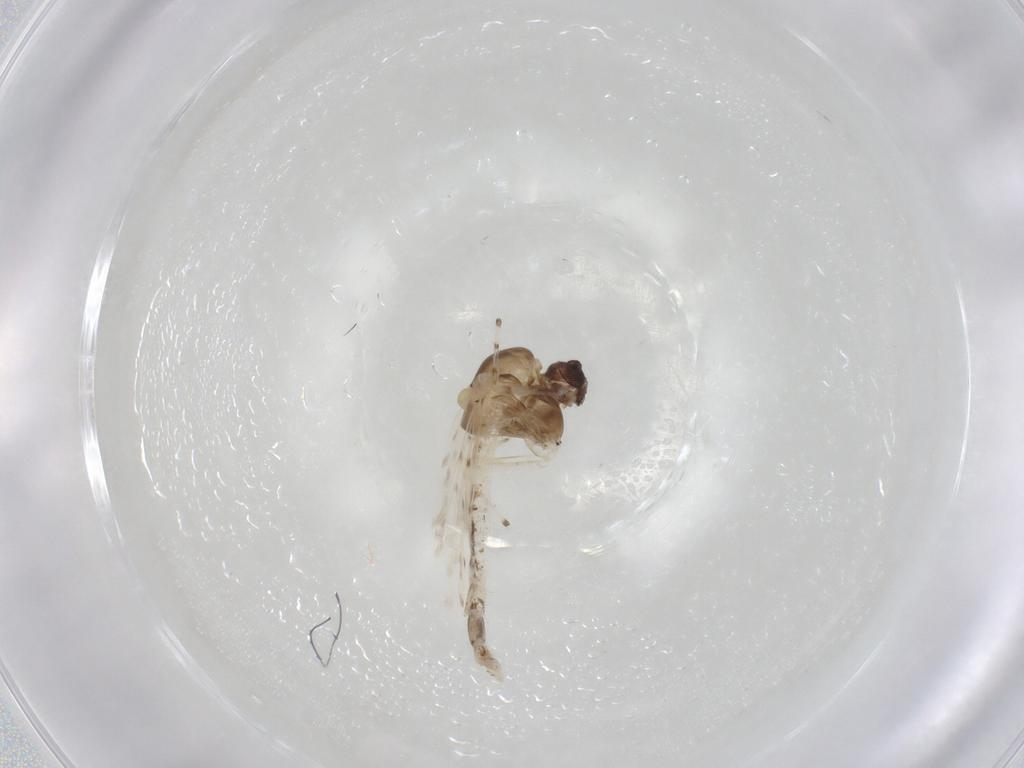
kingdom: Animalia
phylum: Arthropoda
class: Insecta
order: Diptera
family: Chironomidae
